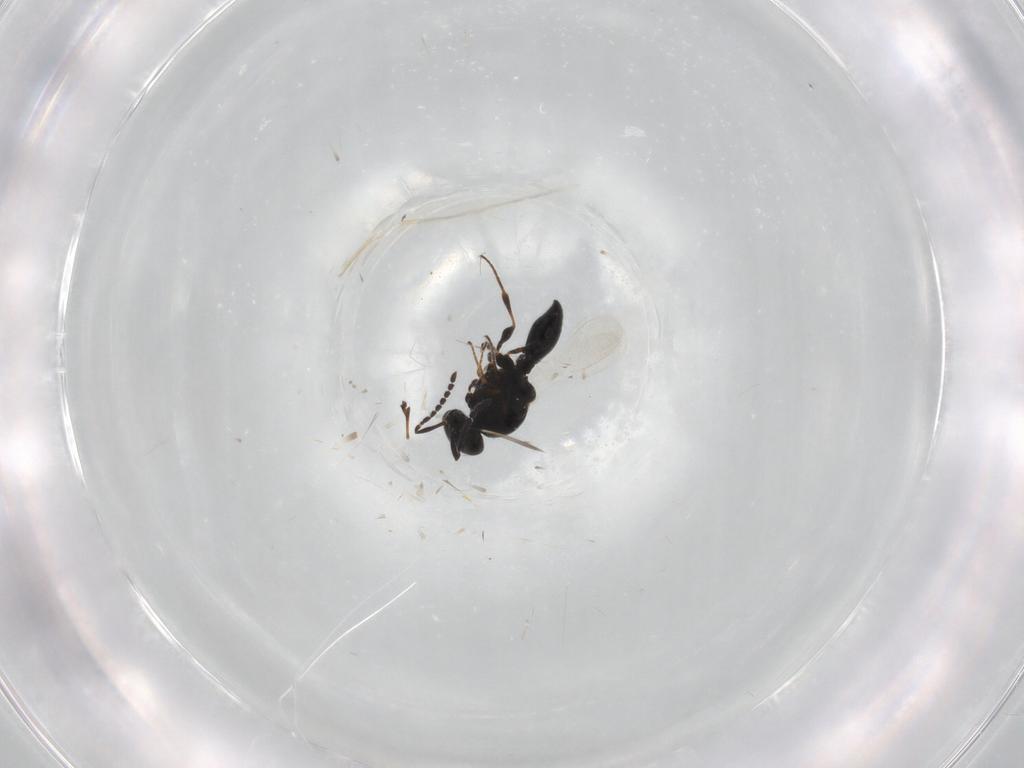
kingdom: Animalia
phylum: Arthropoda
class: Insecta
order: Hymenoptera
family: Platygastridae
